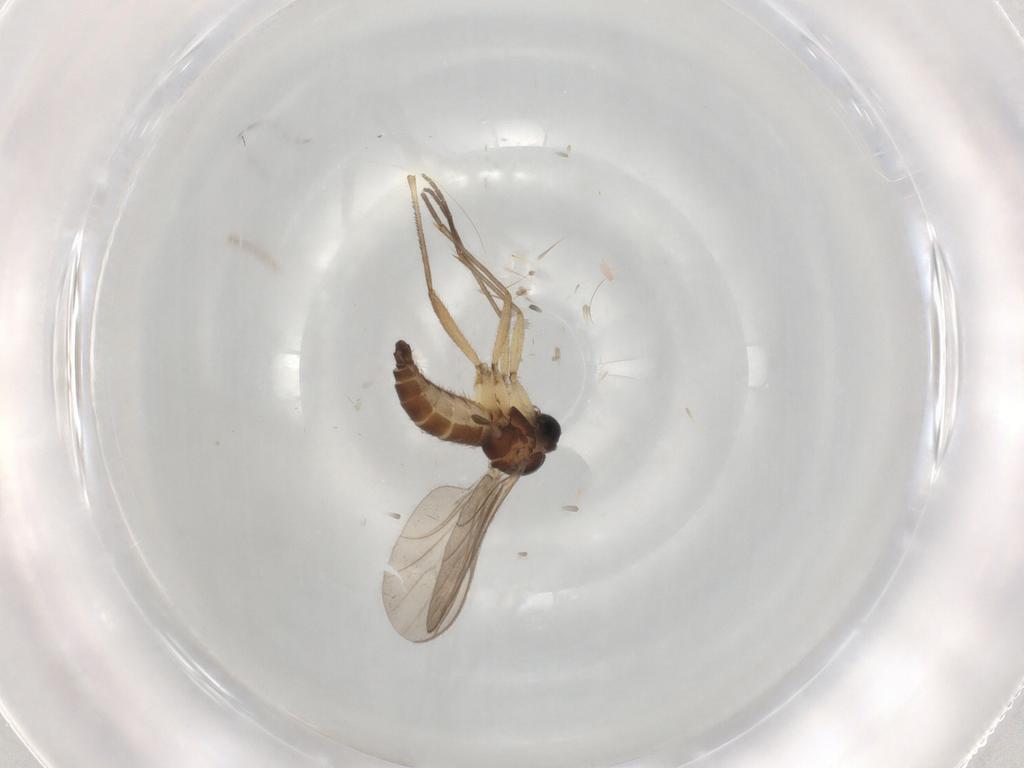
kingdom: Animalia
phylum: Arthropoda
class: Insecta
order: Diptera
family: Sciaridae
